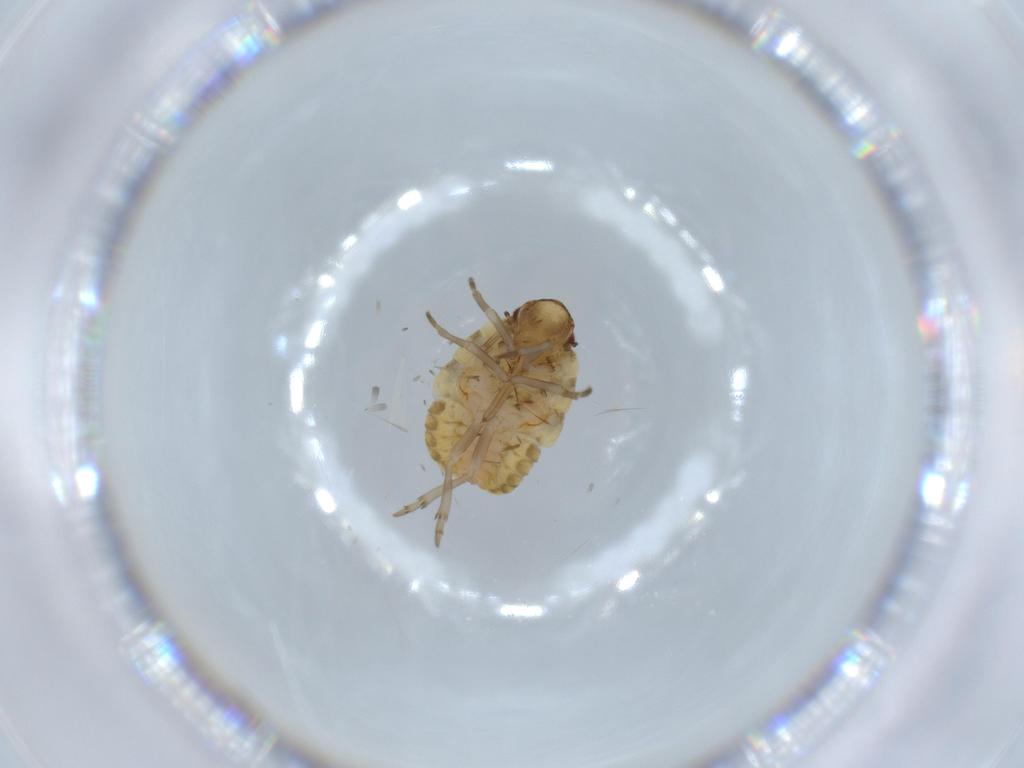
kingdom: Animalia
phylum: Arthropoda
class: Insecta
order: Hemiptera
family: Flatidae
